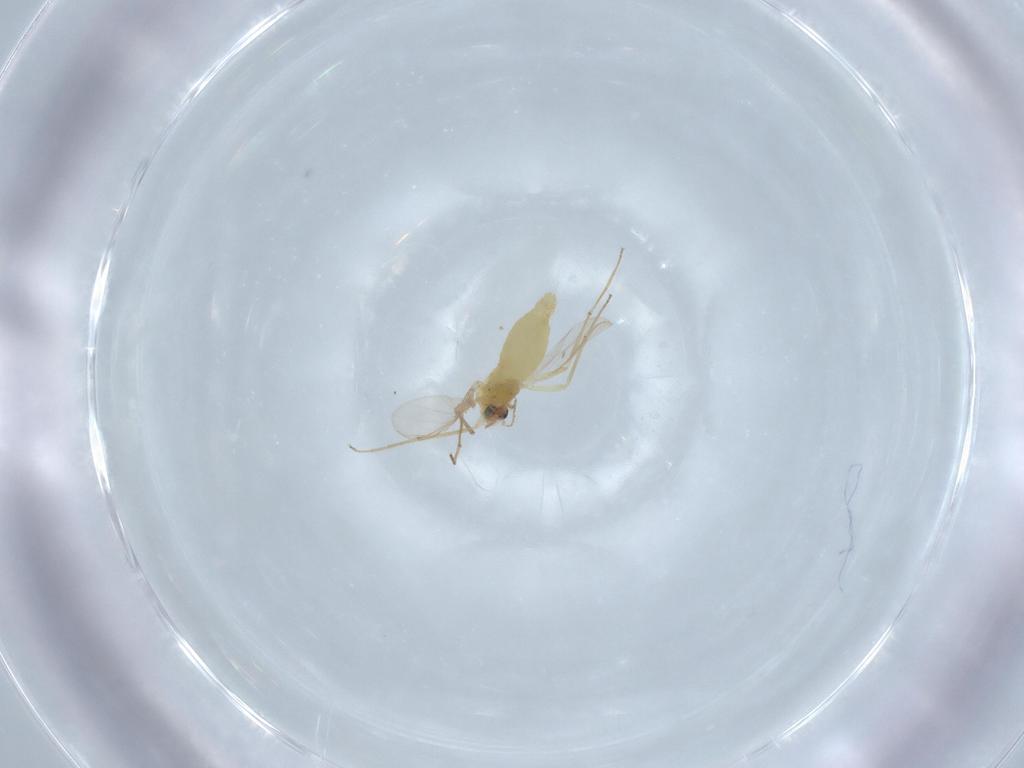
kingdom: Animalia
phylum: Arthropoda
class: Insecta
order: Diptera
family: Chironomidae
